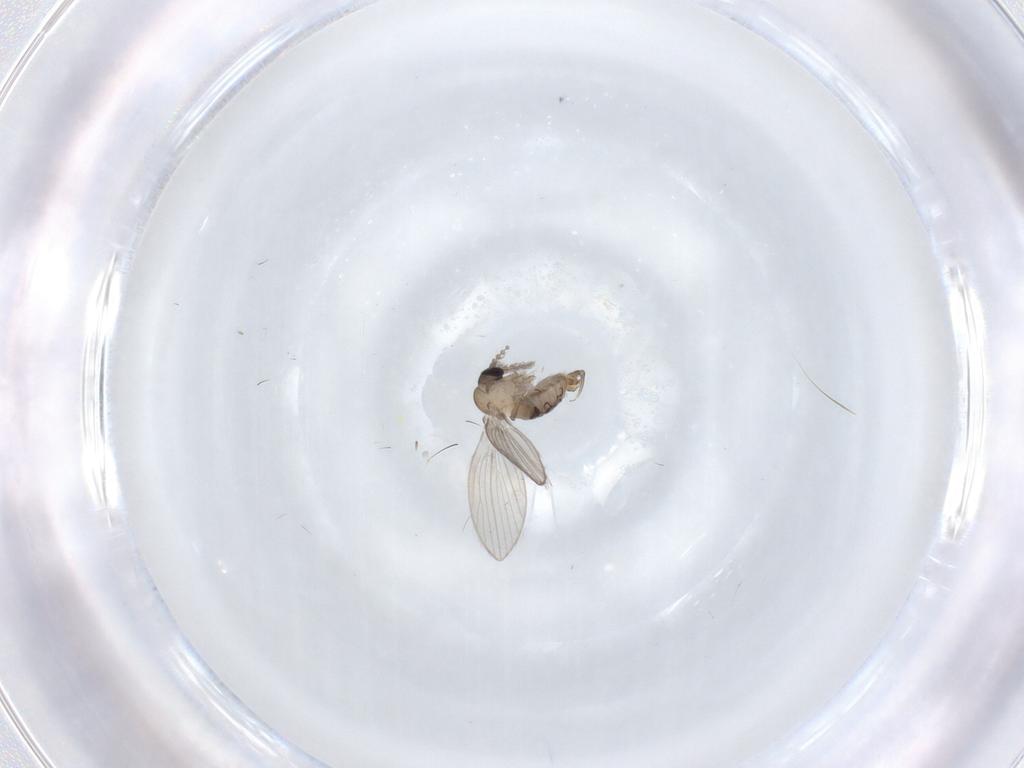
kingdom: Animalia
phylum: Arthropoda
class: Insecta
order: Diptera
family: Psychodidae
